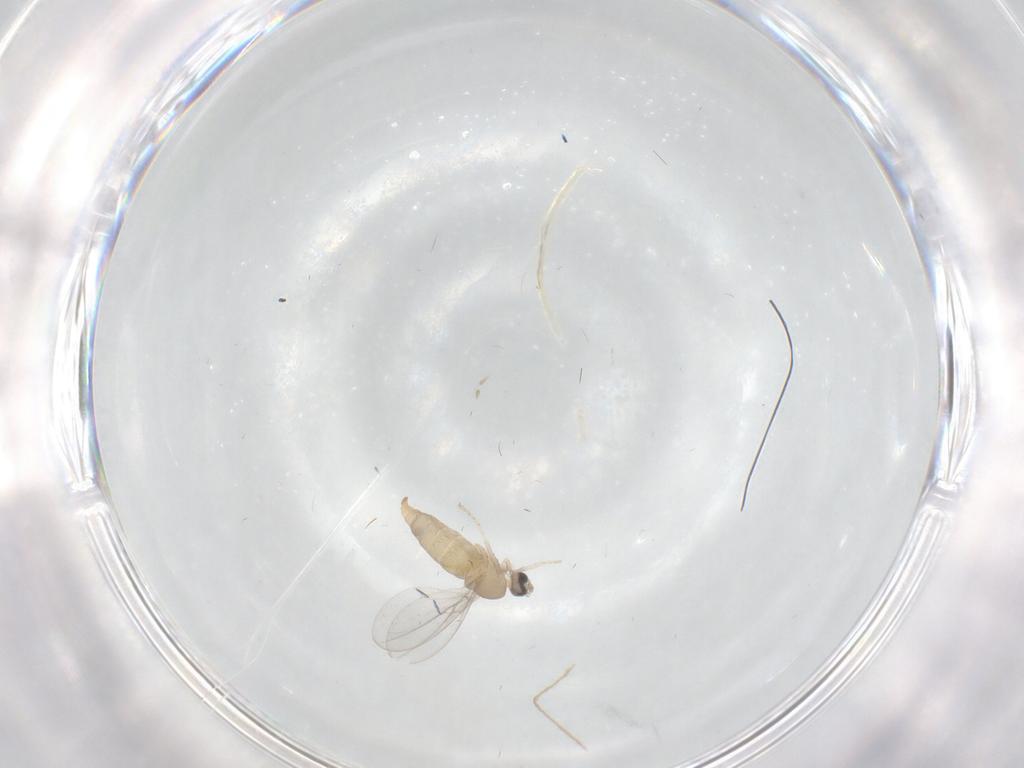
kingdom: Animalia
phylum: Arthropoda
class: Insecta
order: Diptera
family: Cecidomyiidae
